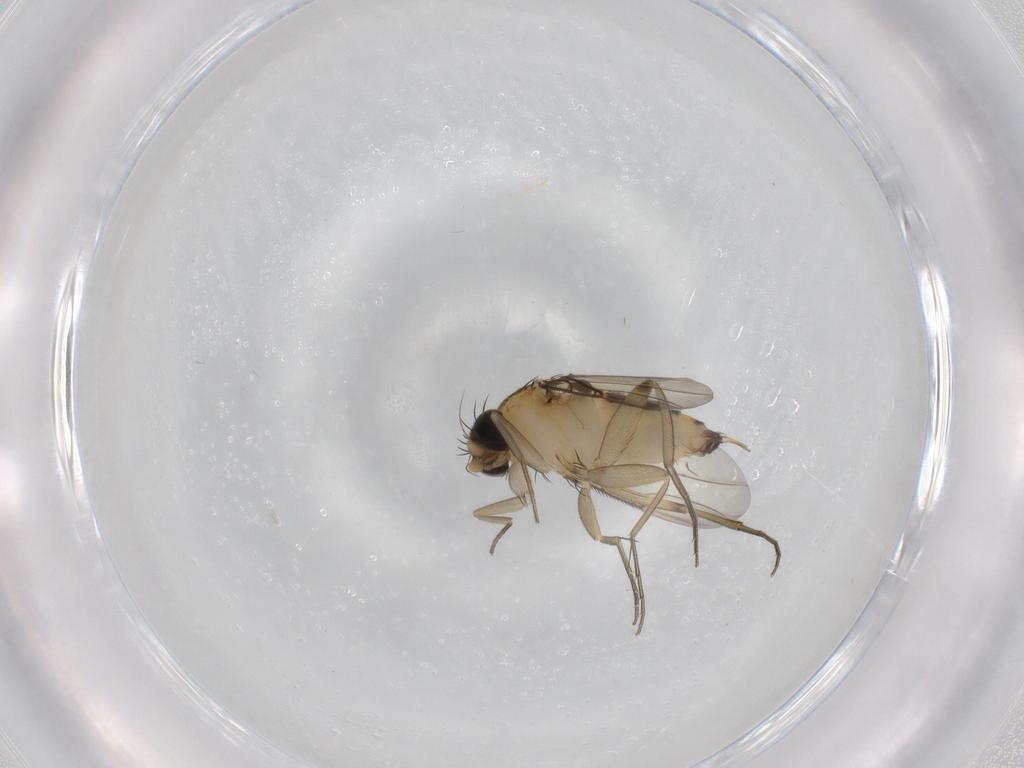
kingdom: Animalia
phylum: Arthropoda
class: Insecta
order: Diptera
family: Phoridae
